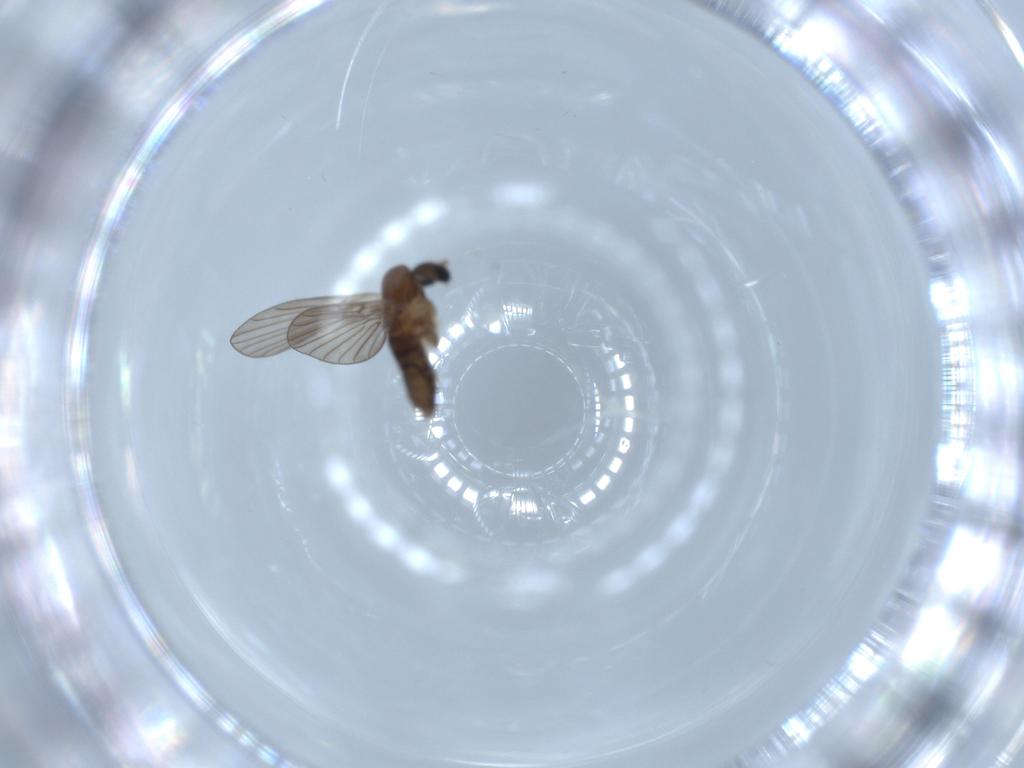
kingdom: Animalia
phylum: Arthropoda
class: Insecta
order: Diptera
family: Psychodidae
